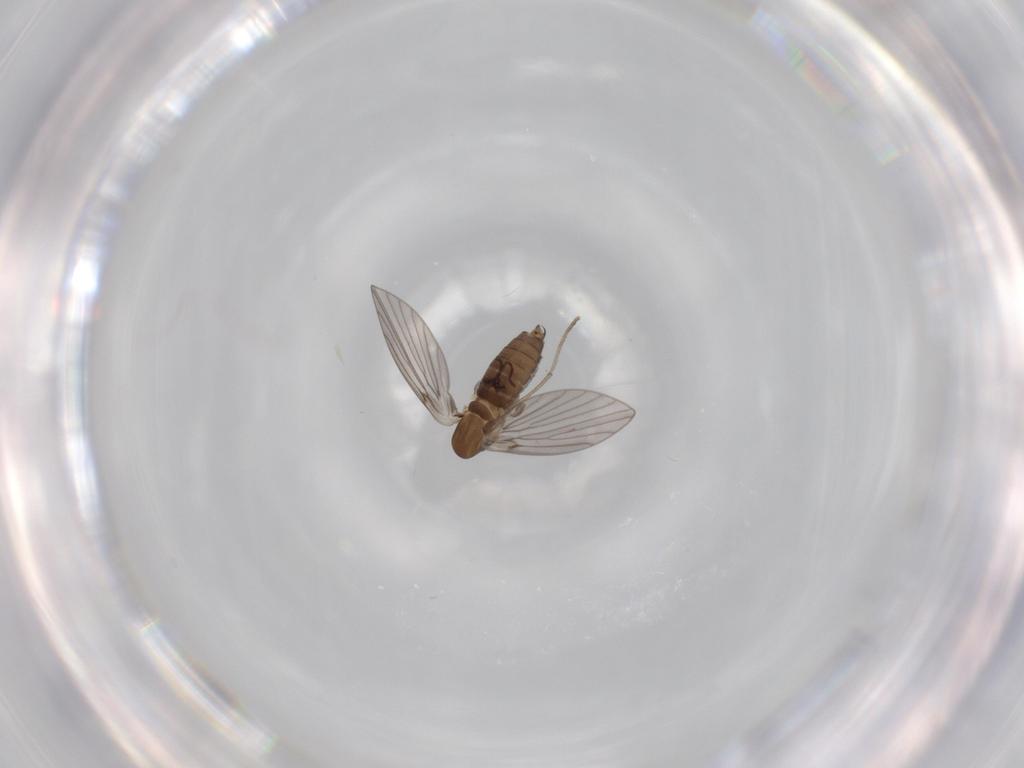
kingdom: Animalia
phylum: Arthropoda
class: Insecta
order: Diptera
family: Psychodidae
